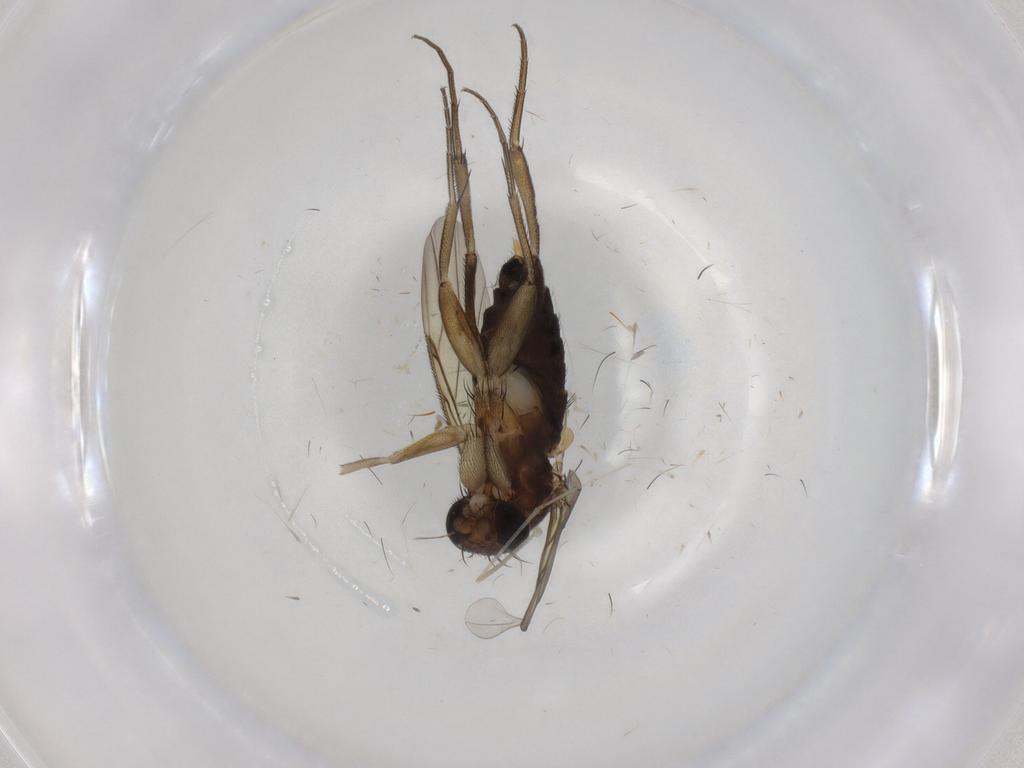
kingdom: Animalia
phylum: Arthropoda
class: Insecta
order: Diptera
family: Phoridae
